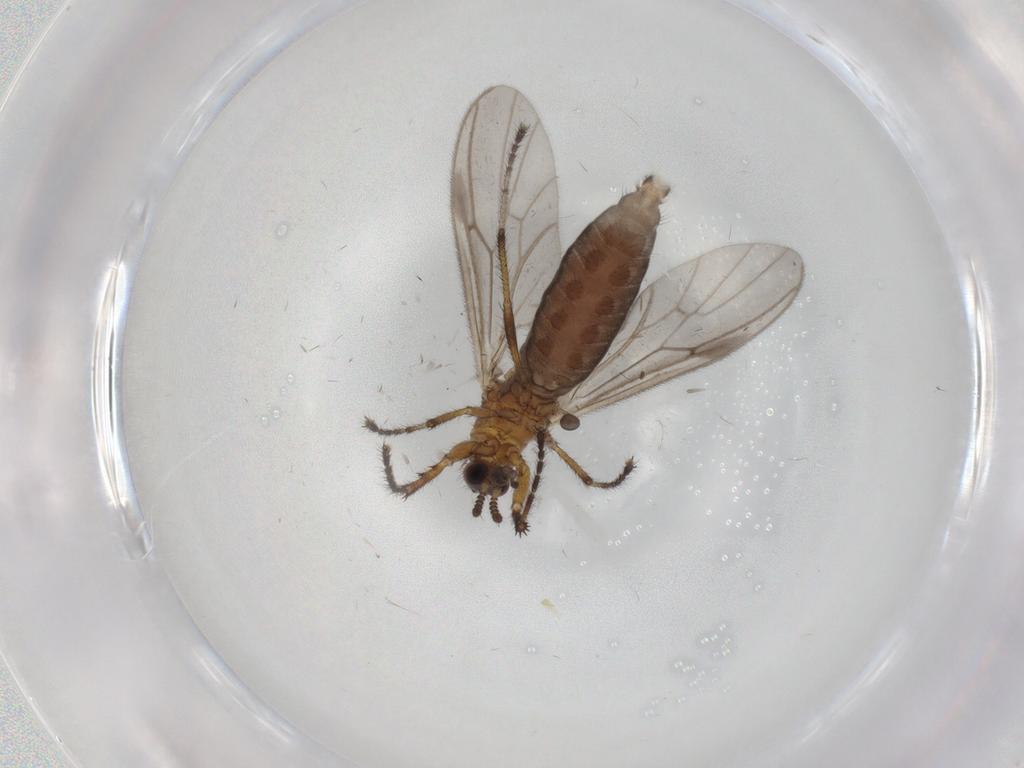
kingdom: Animalia
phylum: Arthropoda
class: Insecta
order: Diptera
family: Bibionidae
